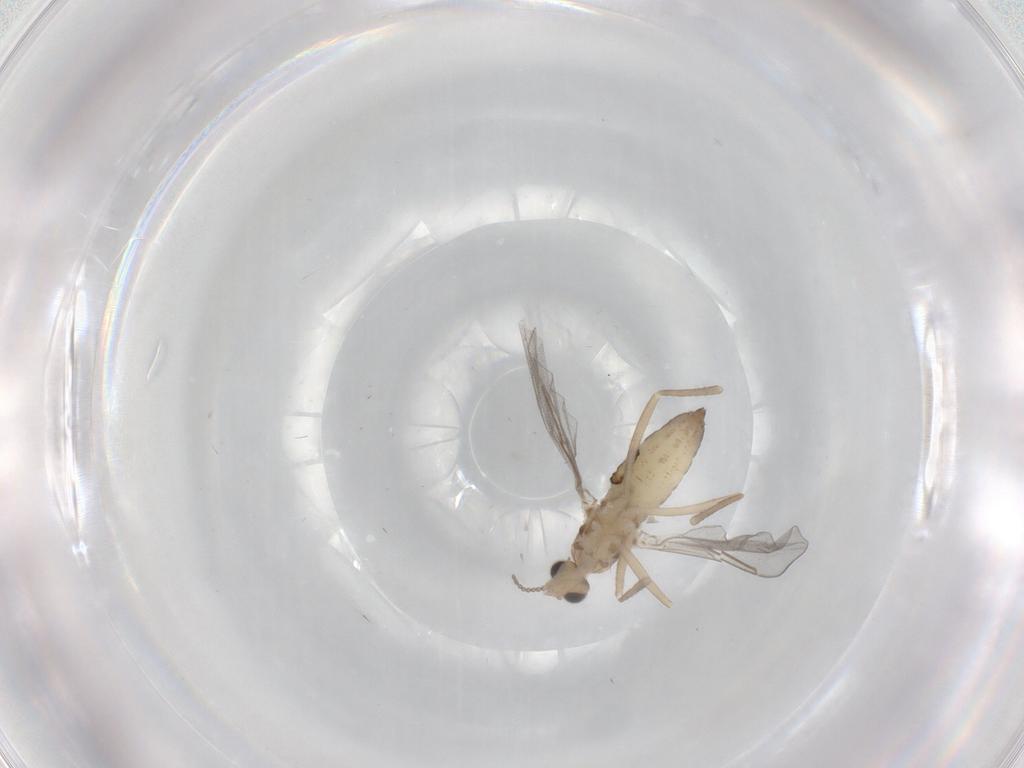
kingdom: Animalia
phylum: Arthropoda
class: Insecta
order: Diptera
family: Cecidomyiidae
